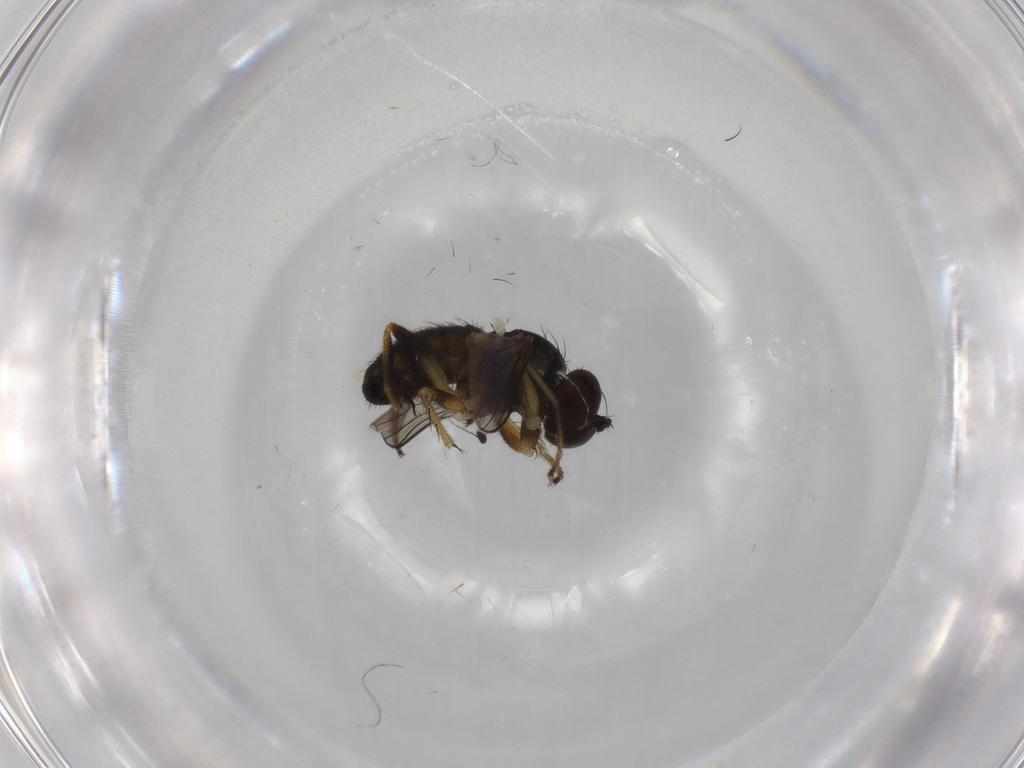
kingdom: Animalia
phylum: Arthropoda
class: Insecta
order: Diptera
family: Dolichopodidae
